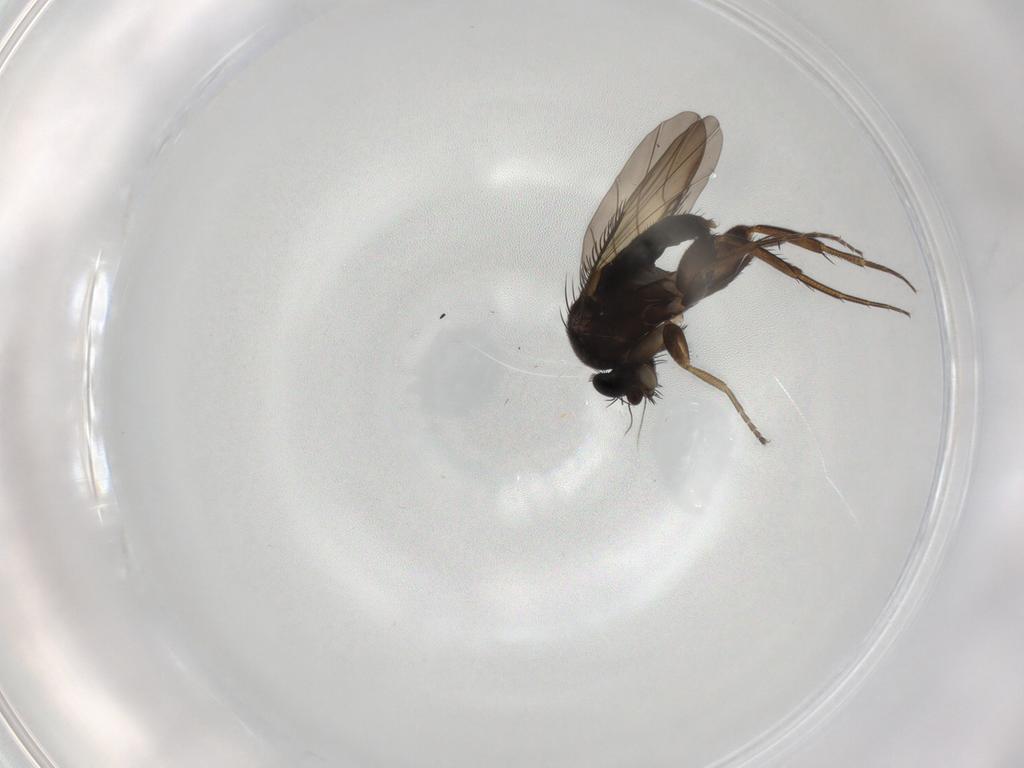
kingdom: Animalia
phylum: Arthropoda
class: Insecta
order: Diptera
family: Phoridae
